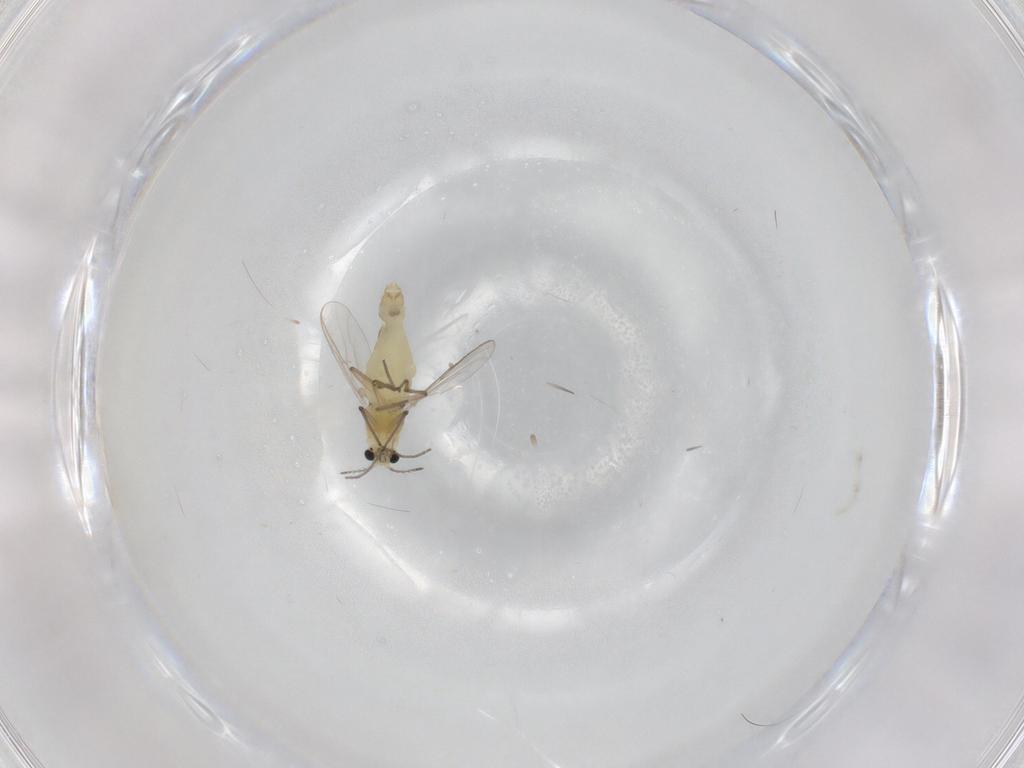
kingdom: Animalia
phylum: Arthropoda
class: Insecta
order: Diptera
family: Chironomidae
